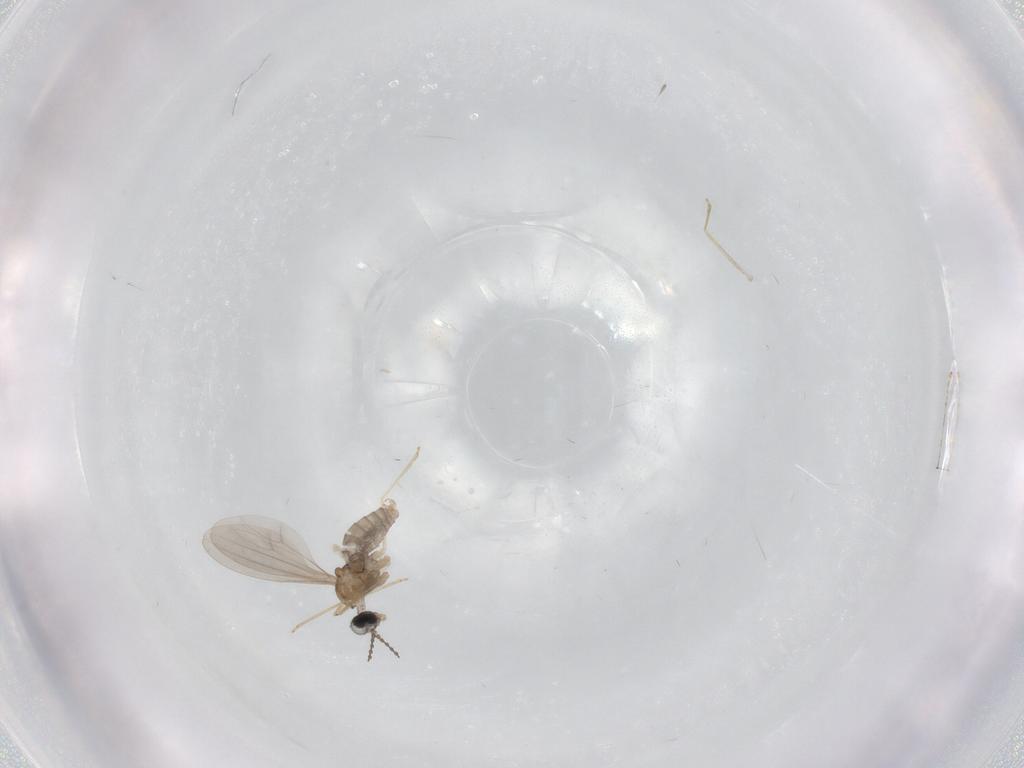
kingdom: Animalia
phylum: Arthropoda
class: Insecta
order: Diptera
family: Cecidomyiidae
